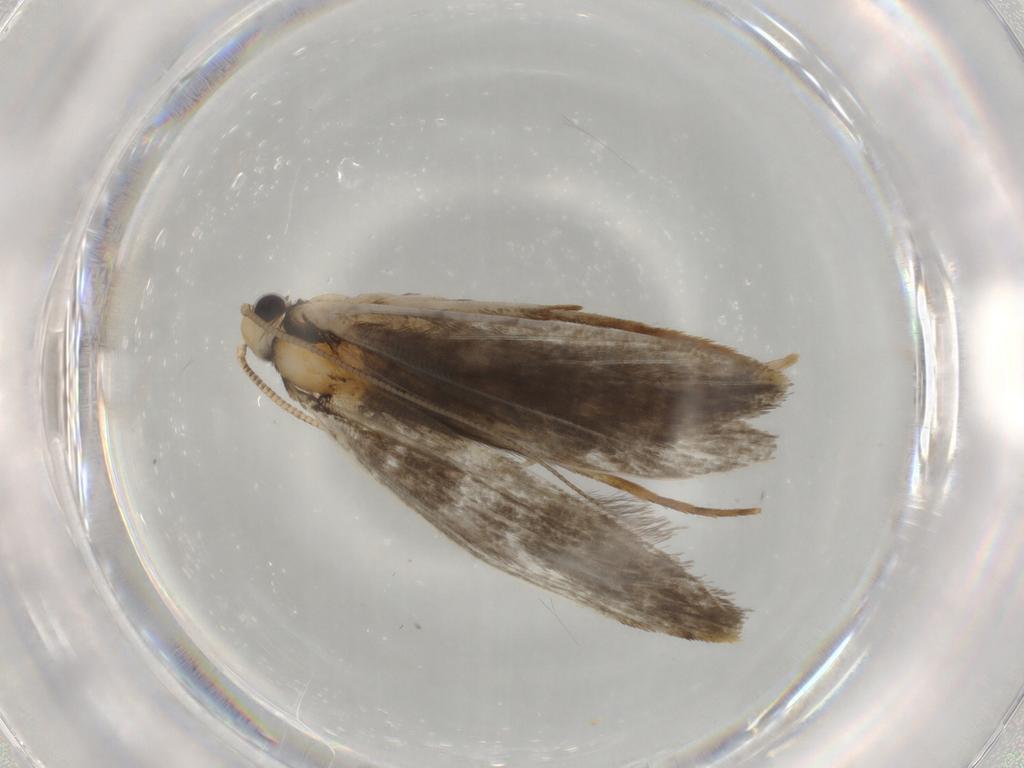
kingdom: Animalia
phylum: Arthropoda
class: Insecta
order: Lepidoptera
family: Tineidae
